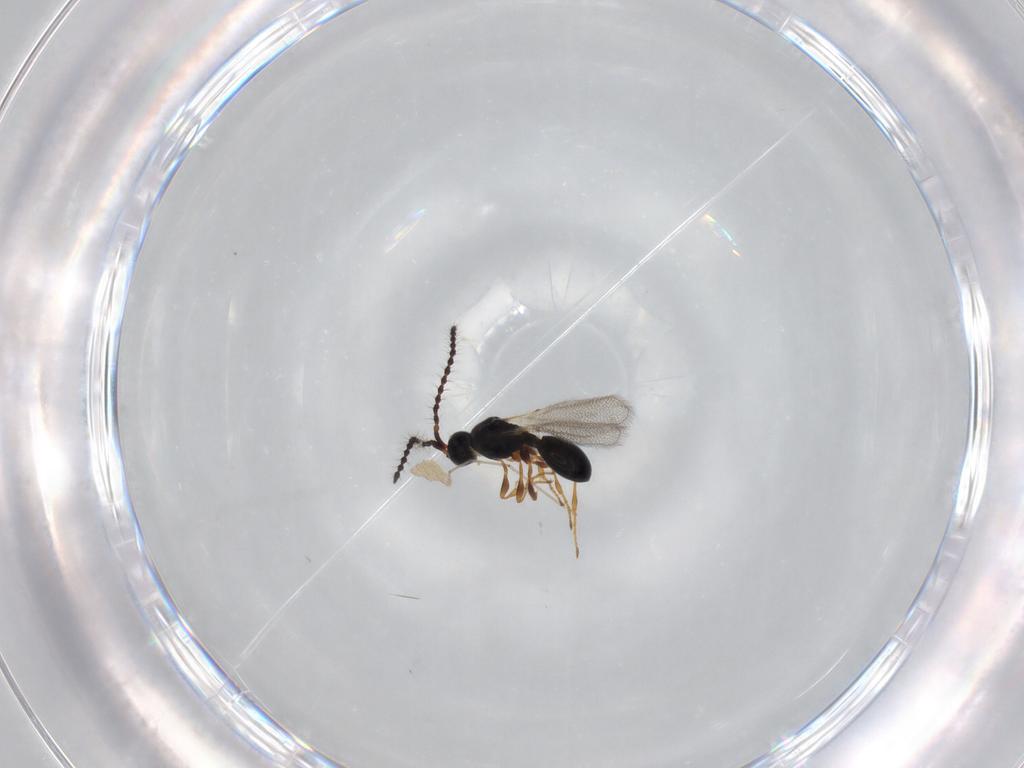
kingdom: Animalia
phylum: Arthropoda
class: Insecta
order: Hymenoptera
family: Diapriidae
